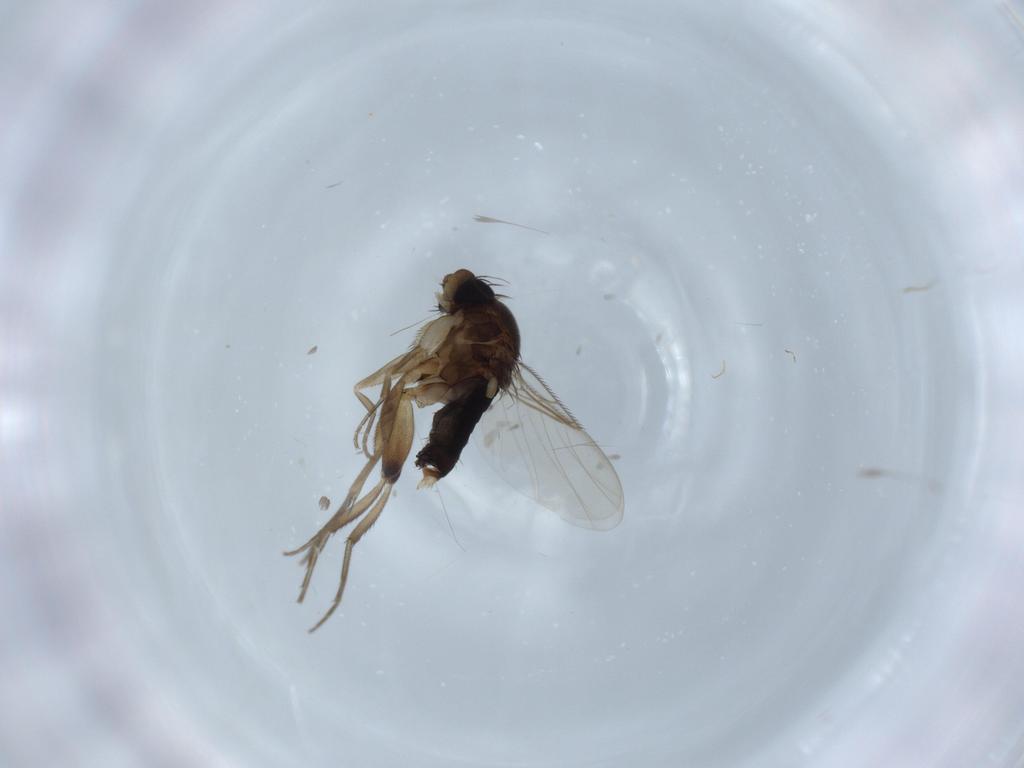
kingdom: Animalia
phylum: Arthropoda
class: Insecta
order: Diptera
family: Phoridae
